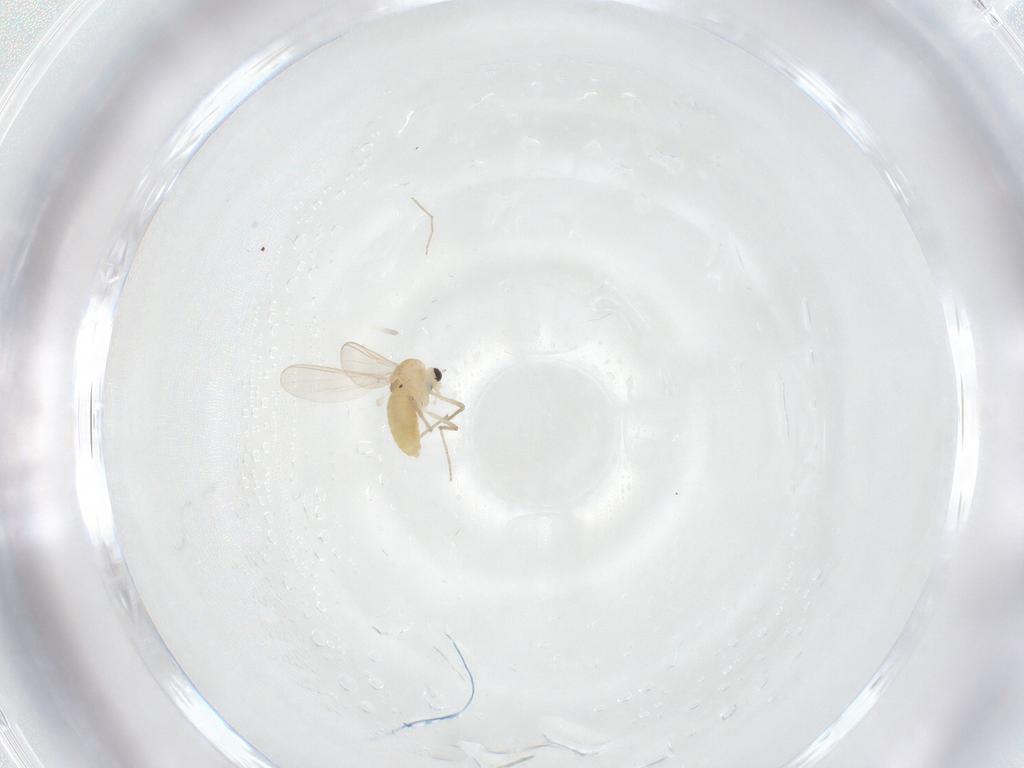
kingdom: Animalia
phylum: Arthropoda
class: Insecta
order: Diptera
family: Chironomidae
